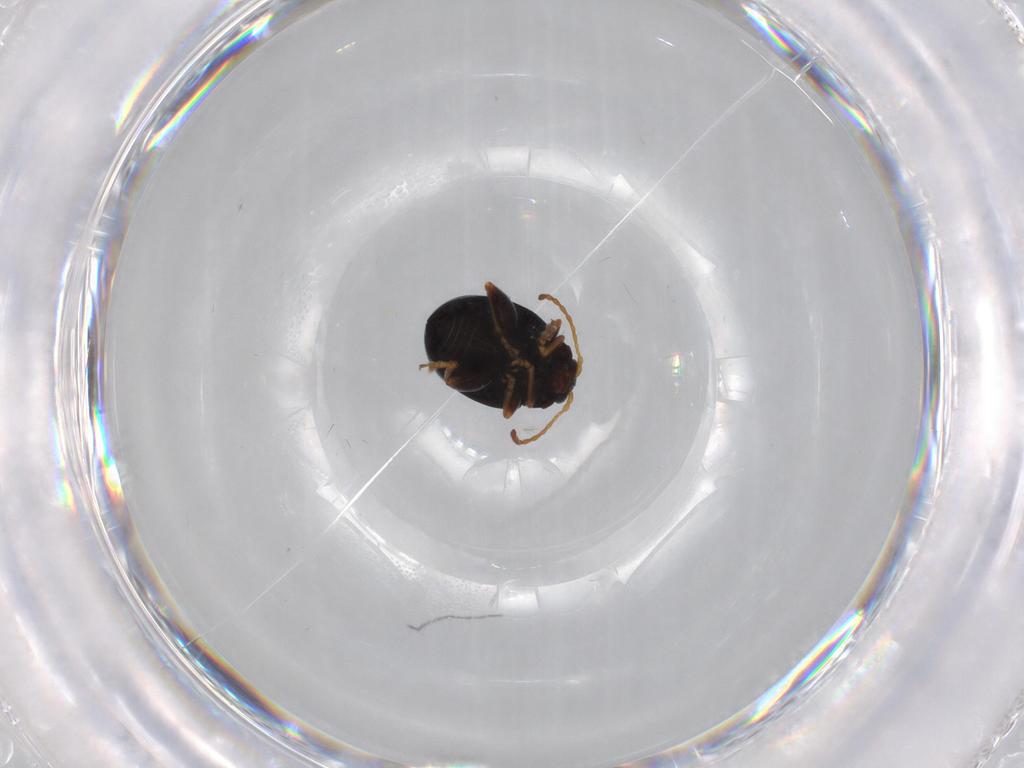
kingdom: Animalia
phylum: Arthropoda
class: Insecta
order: Coleoptera
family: Chrysomelidae
